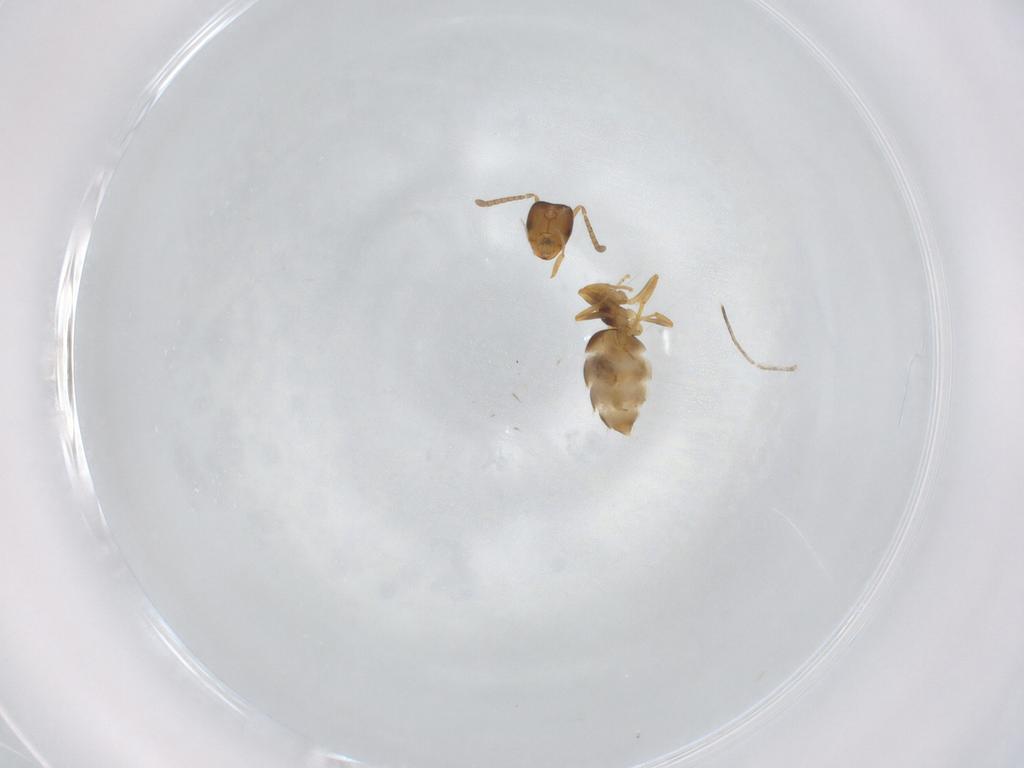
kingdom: Animalia
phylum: Arthropoda
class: Insecta
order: Hymenoptera
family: Formicidae
